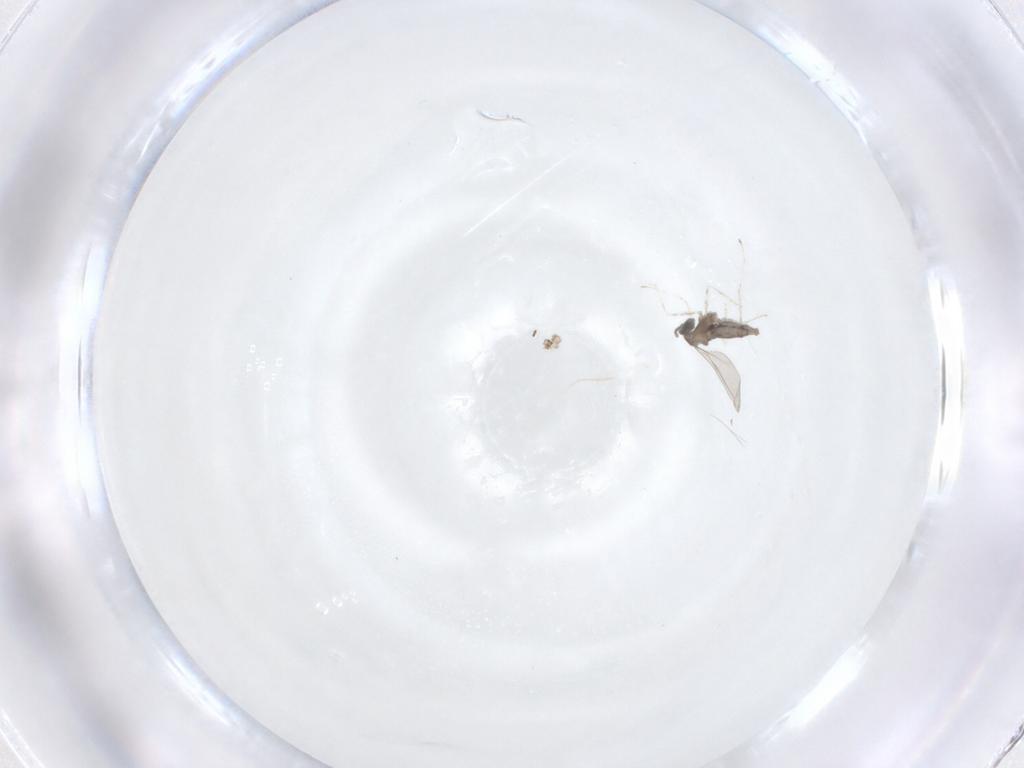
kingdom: Animalia
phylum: Arthropoda
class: Insecta
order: Diptera
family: Cecidomyiidae
